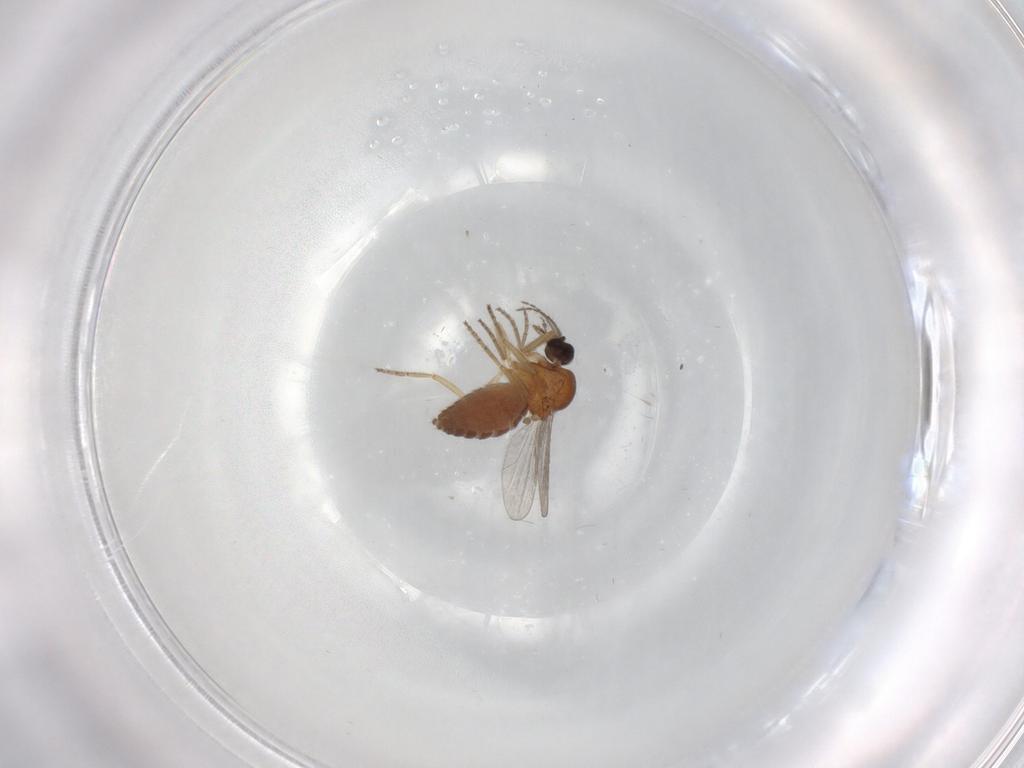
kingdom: Animalia
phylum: Arthropoda
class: Insecta
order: Diptera
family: Ceratopogonidae
